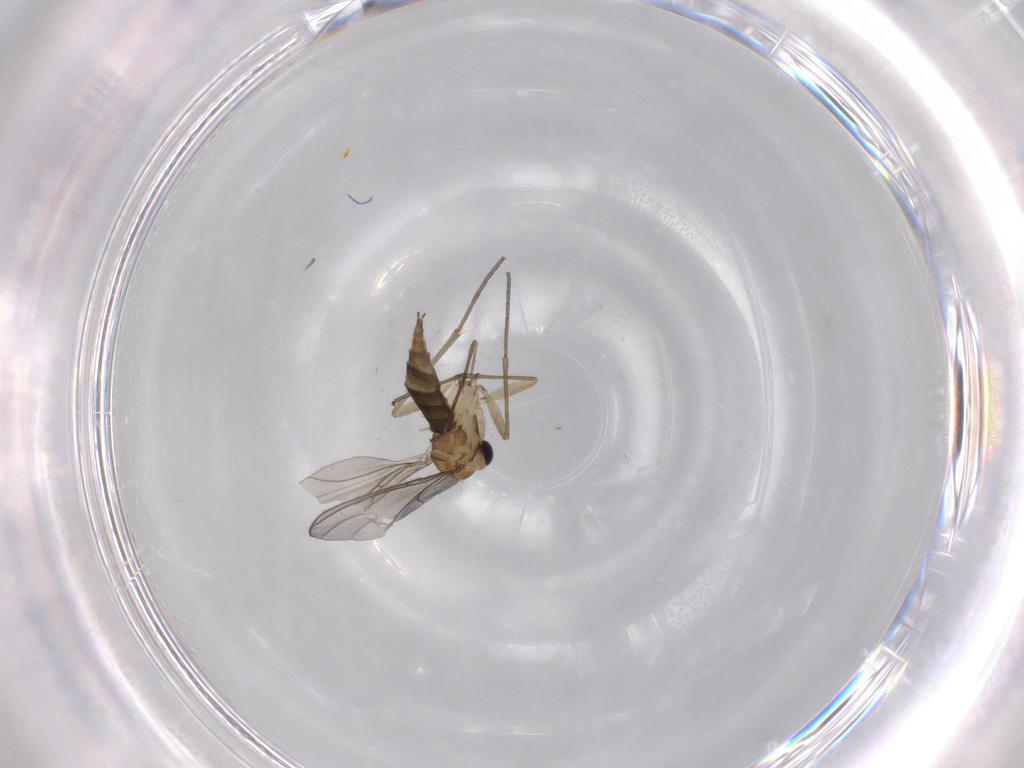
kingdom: Animalia
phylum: Arthropoda
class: Insecta
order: Diptera
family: Sciaridae
